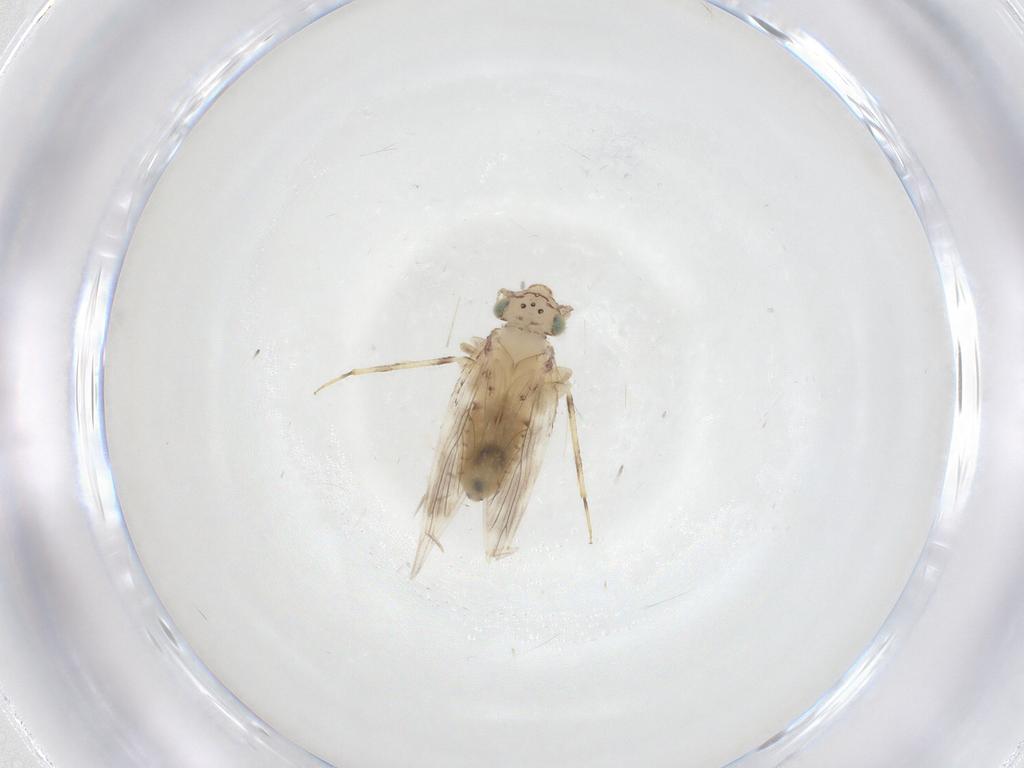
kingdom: Animalia
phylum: Arthropoda
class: Insecta
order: Psocodea
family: Lepidopsocidae
